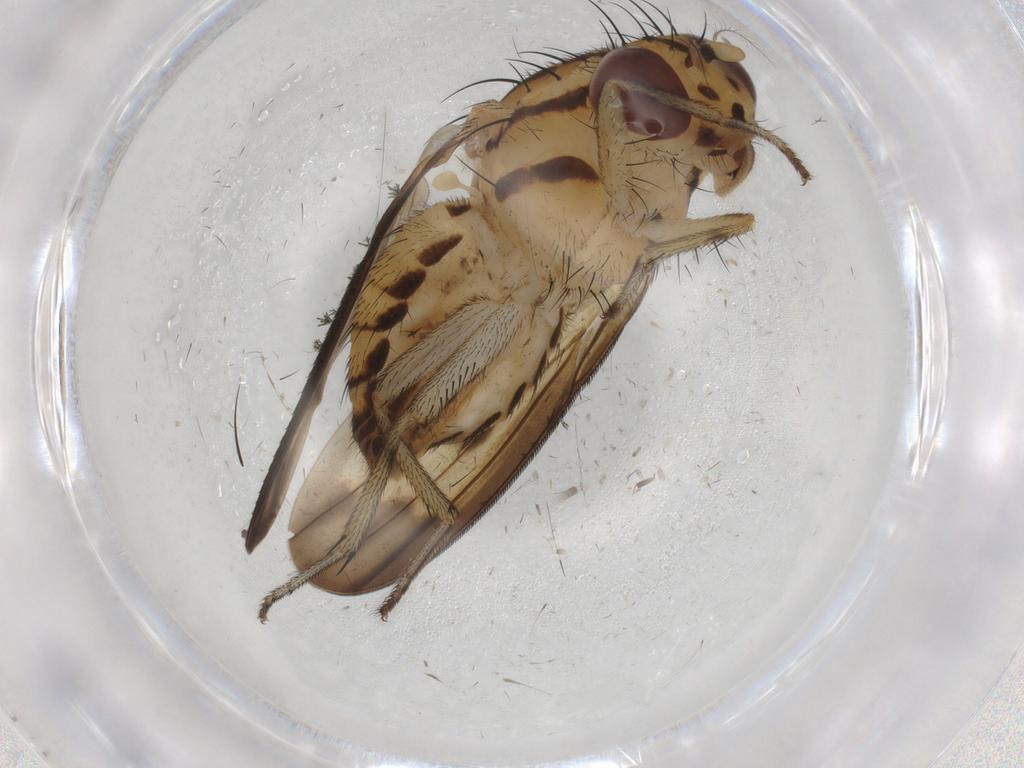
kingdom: Animalia
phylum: Arthropoda
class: Insecta
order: Diptera
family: Psychodidae
